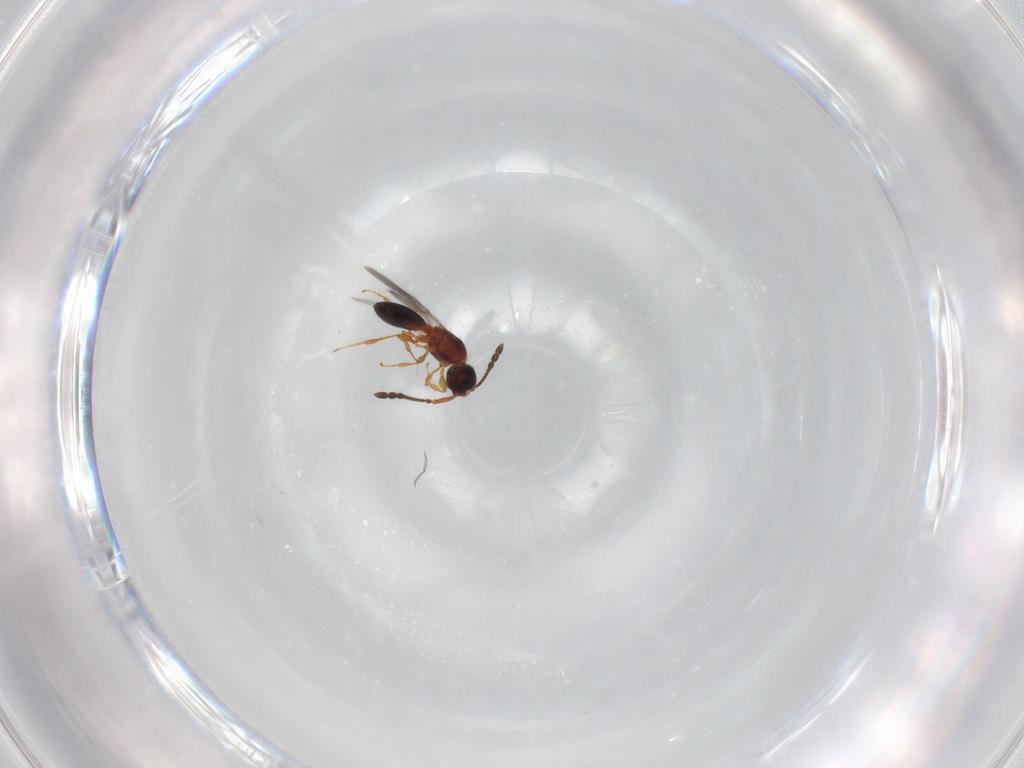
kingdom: Animalia
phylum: Arthropoda
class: Insecta
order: Hymenoptera
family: Diapriidae
